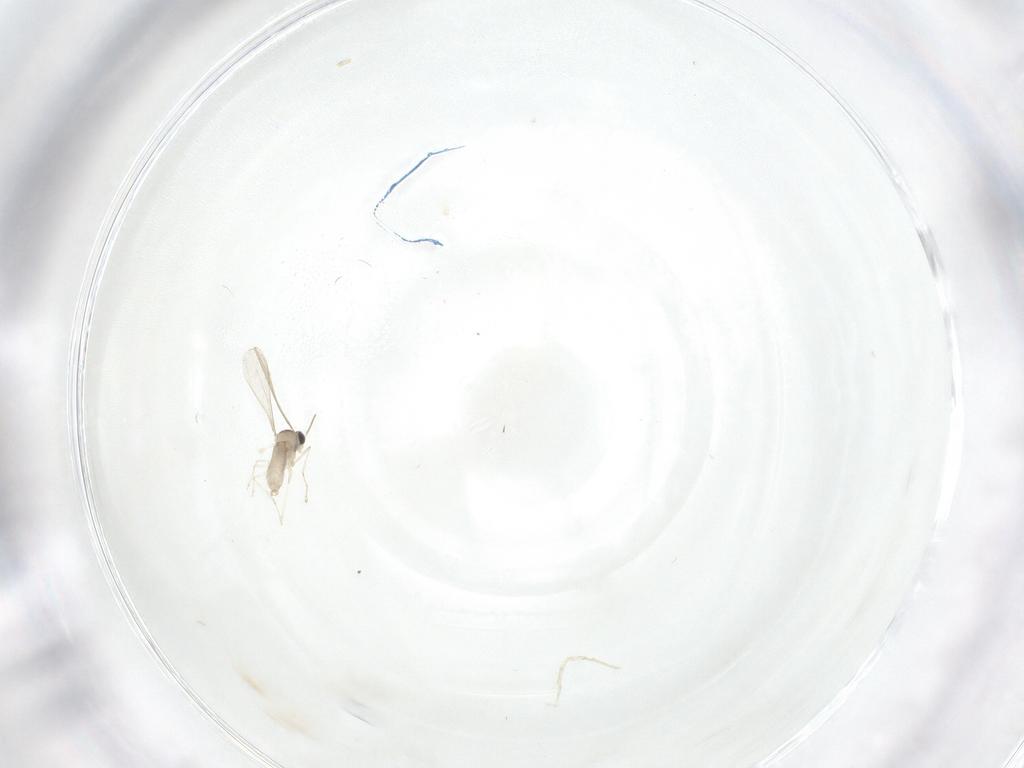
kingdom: Animalia
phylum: Arthropoda
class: Insecta
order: Diptera
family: Psychodidae
